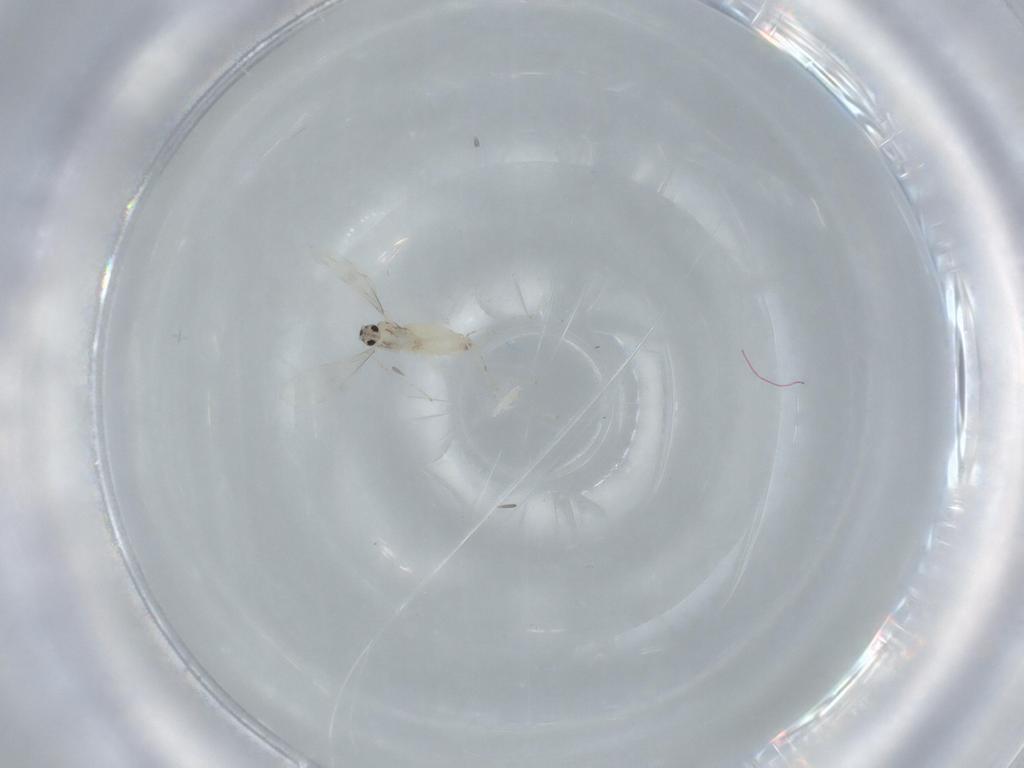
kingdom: Animalia
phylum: Arthropoda
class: Insecta
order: Diptera
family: Cecidomyiidae
